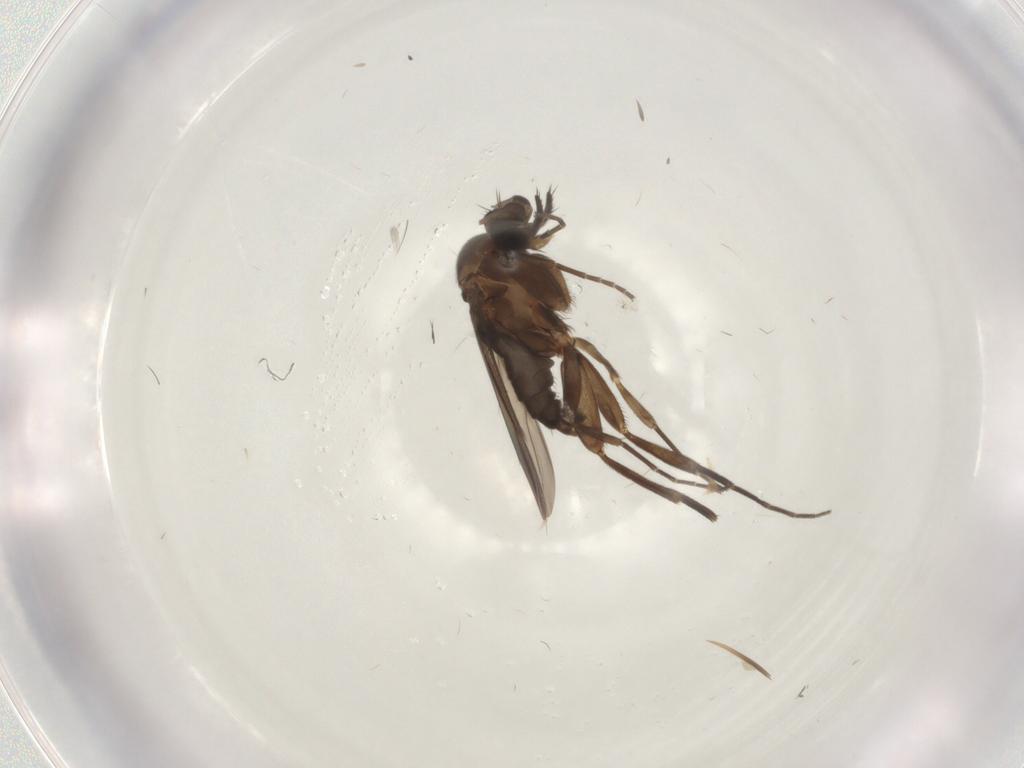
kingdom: Animalia
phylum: Arthropoda
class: Insecta
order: Diptera
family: Phoridae
